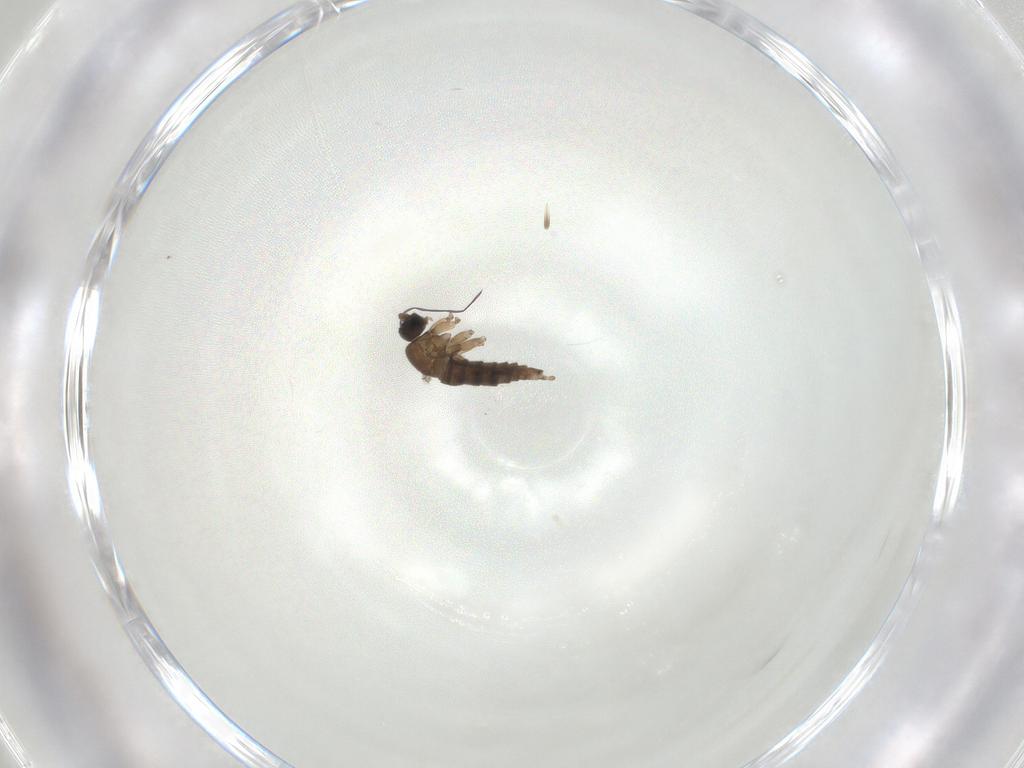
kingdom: Animalia
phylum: Arthropoda
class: Insecta
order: Diptera
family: Sciaridae
